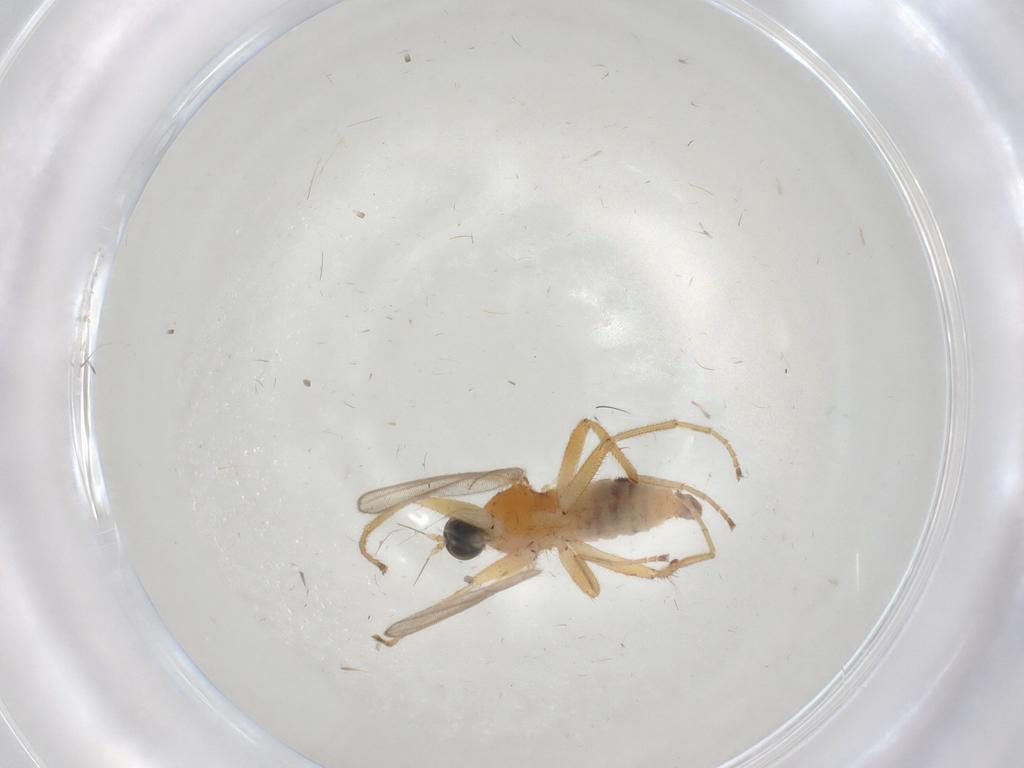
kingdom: Animalia
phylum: Arthropoda
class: Insecta
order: Diptera
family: Hybotidae
